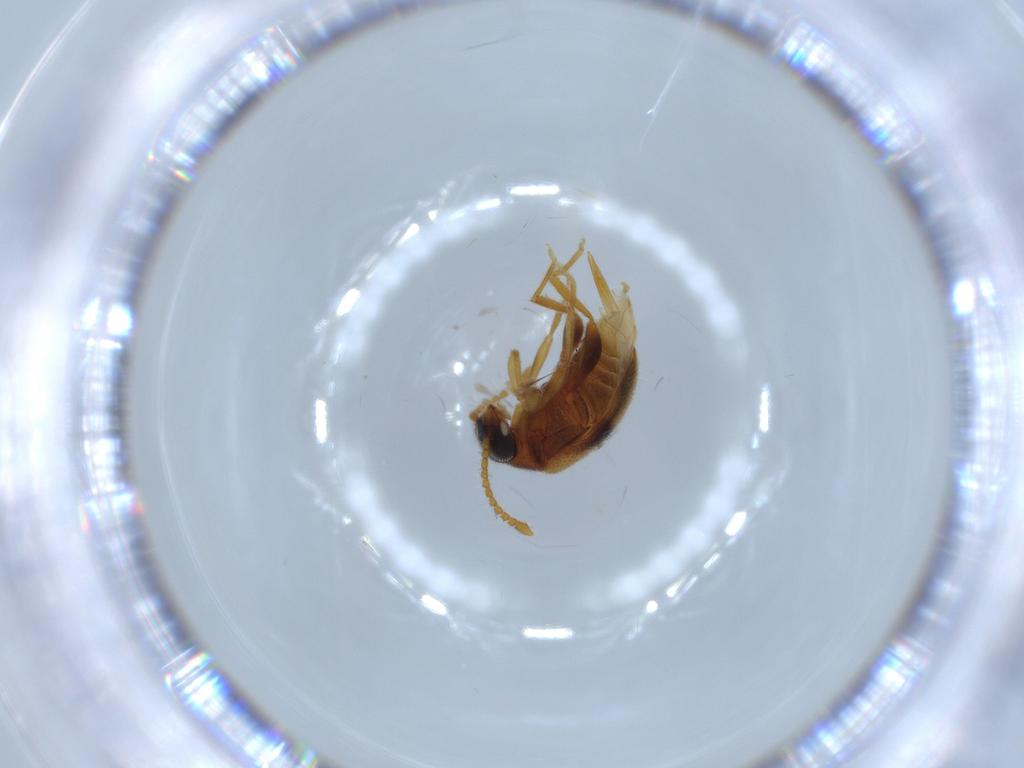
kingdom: Animalia
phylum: Arthropoda
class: Insecta
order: Coleoptera
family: Aderidae
